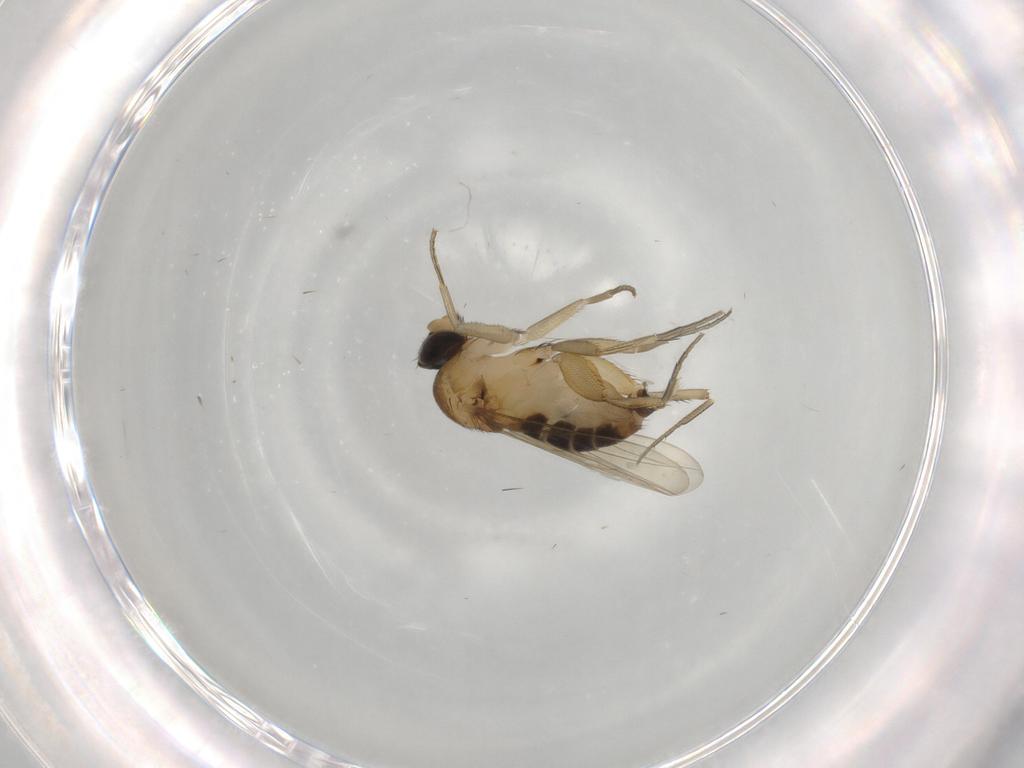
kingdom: Animalia
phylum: Arthropoda
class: Insecta
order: Diptera
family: Phoridae
